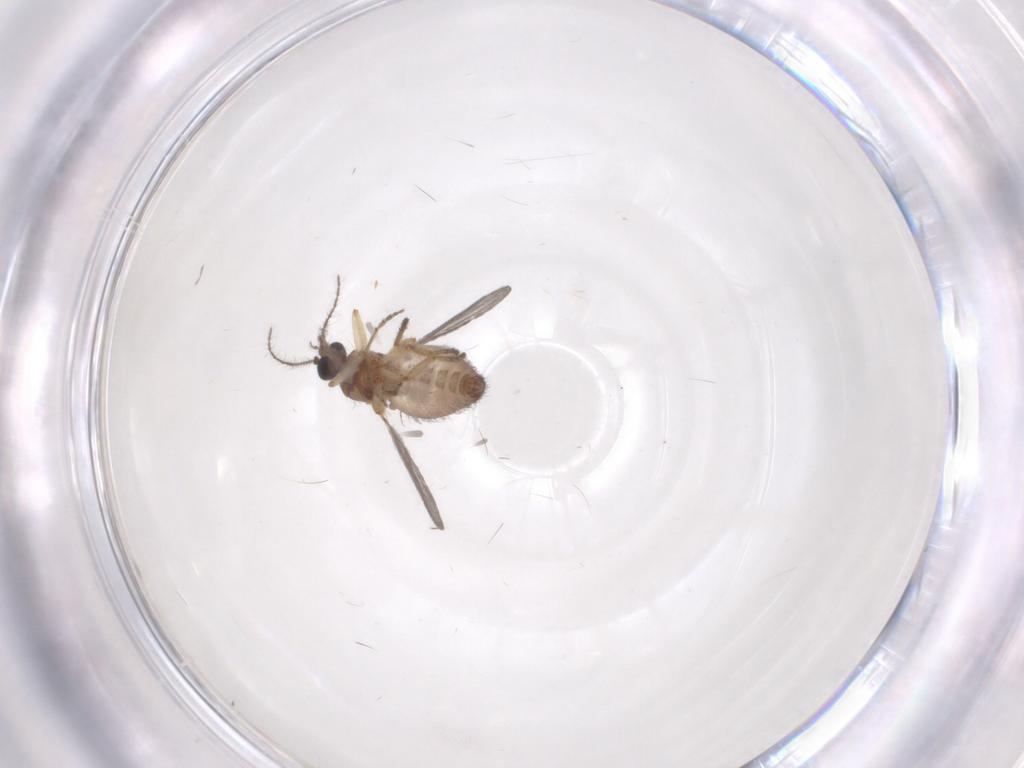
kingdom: Animalia
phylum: Arthropoda
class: Insecta
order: Diptera
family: Ceratopogonidae
